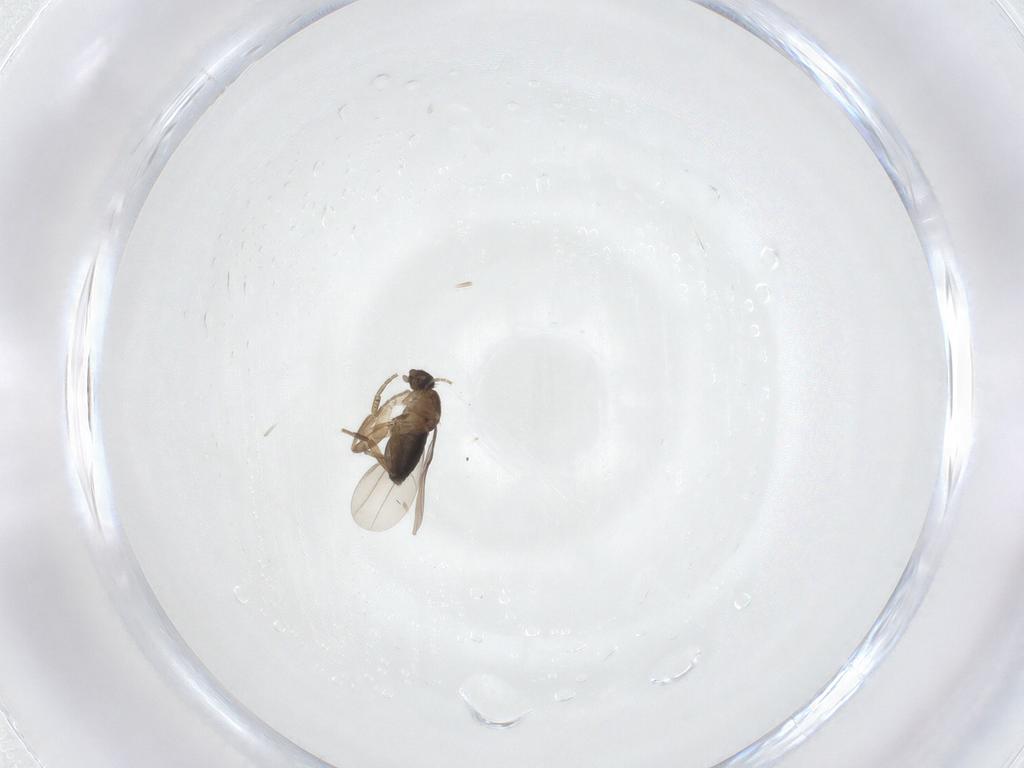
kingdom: Animalia
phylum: Arthropoda
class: Insecta
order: Diptera
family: Phoridae
